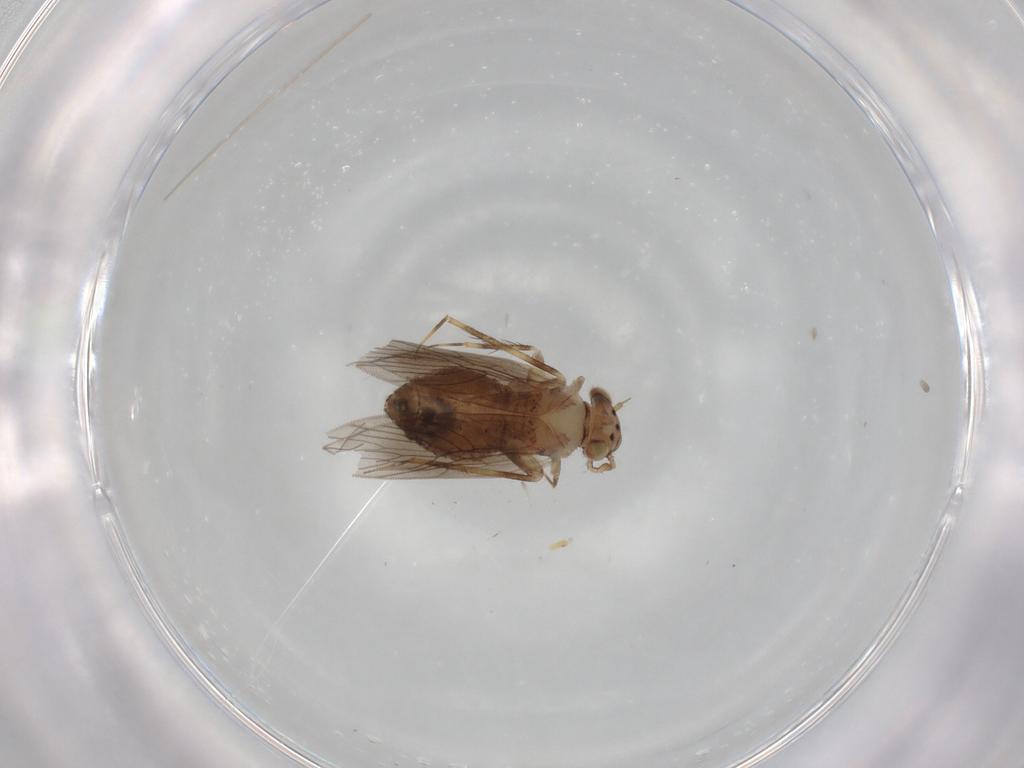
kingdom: Animalia
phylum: Arthropoda
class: Insecta
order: Psocodea
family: Lepidopsocidae
